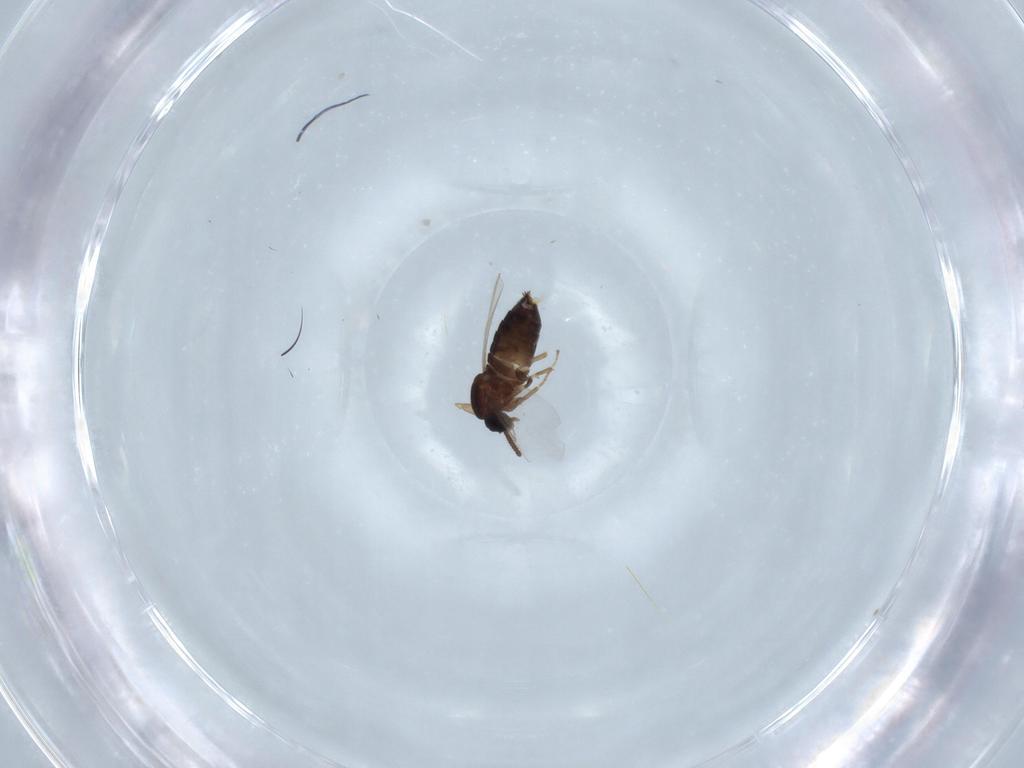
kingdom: Animalia
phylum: Arthropoda
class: Insecta
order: Diptera
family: Scatopsidae
